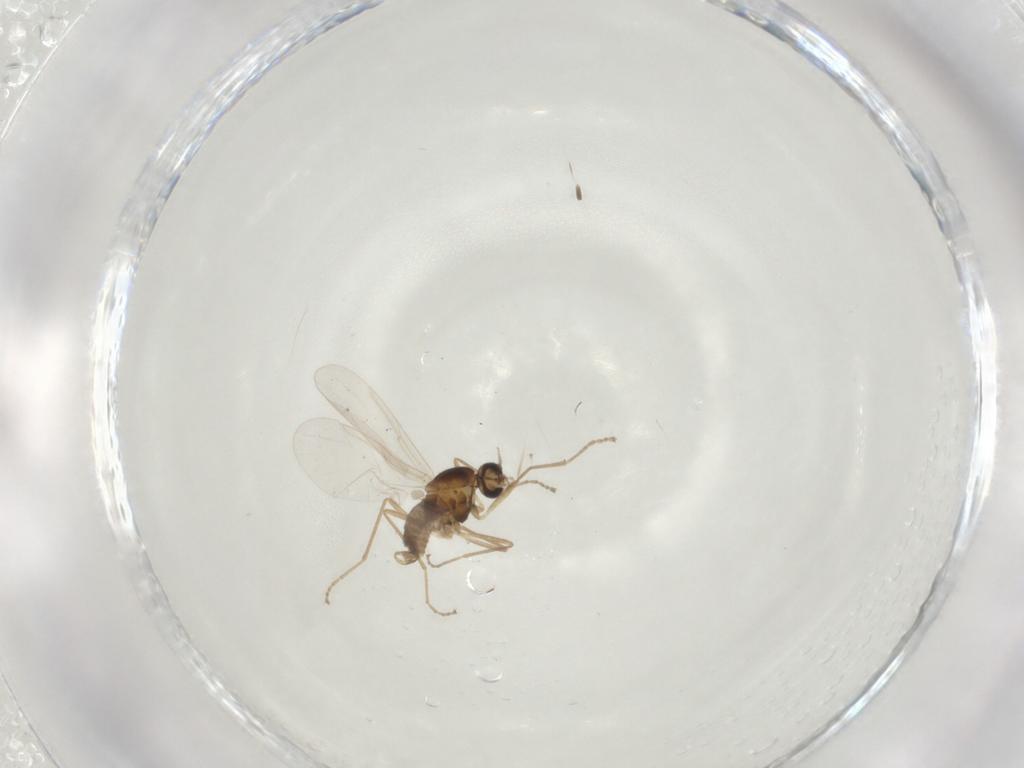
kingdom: Animalia
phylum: Arthropoda
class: Insecta
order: Diptera
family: Cecidomyiidae
